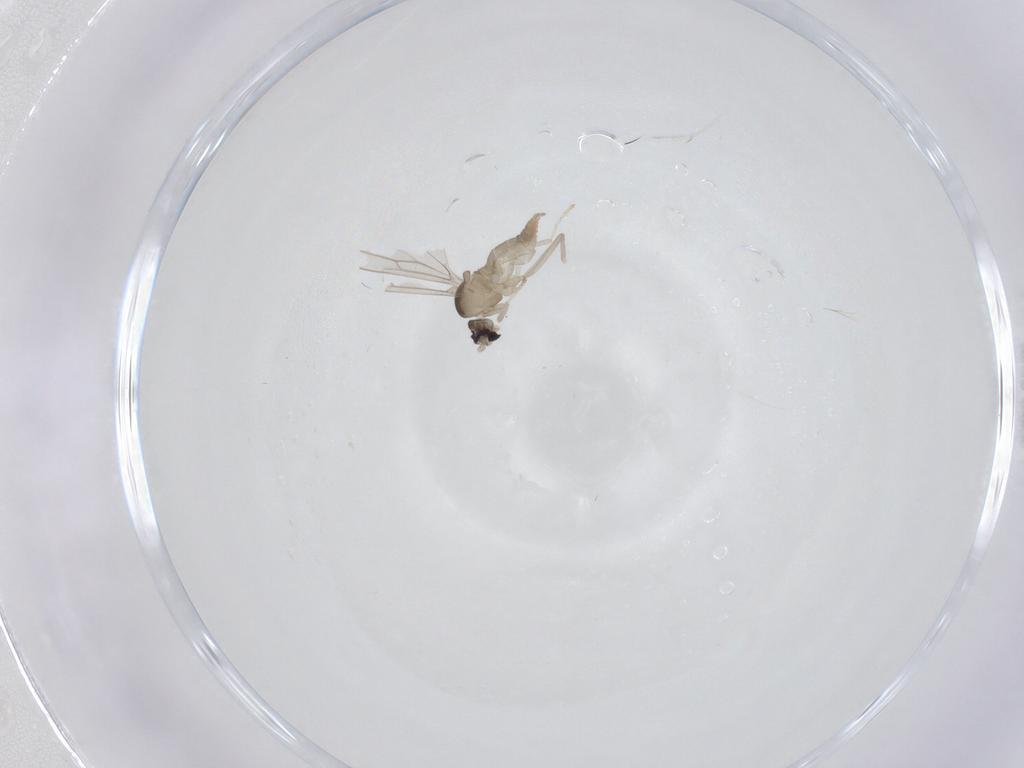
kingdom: Animalia
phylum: Arthropoda
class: Insecta
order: Diptera
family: Cecidomyiidae
